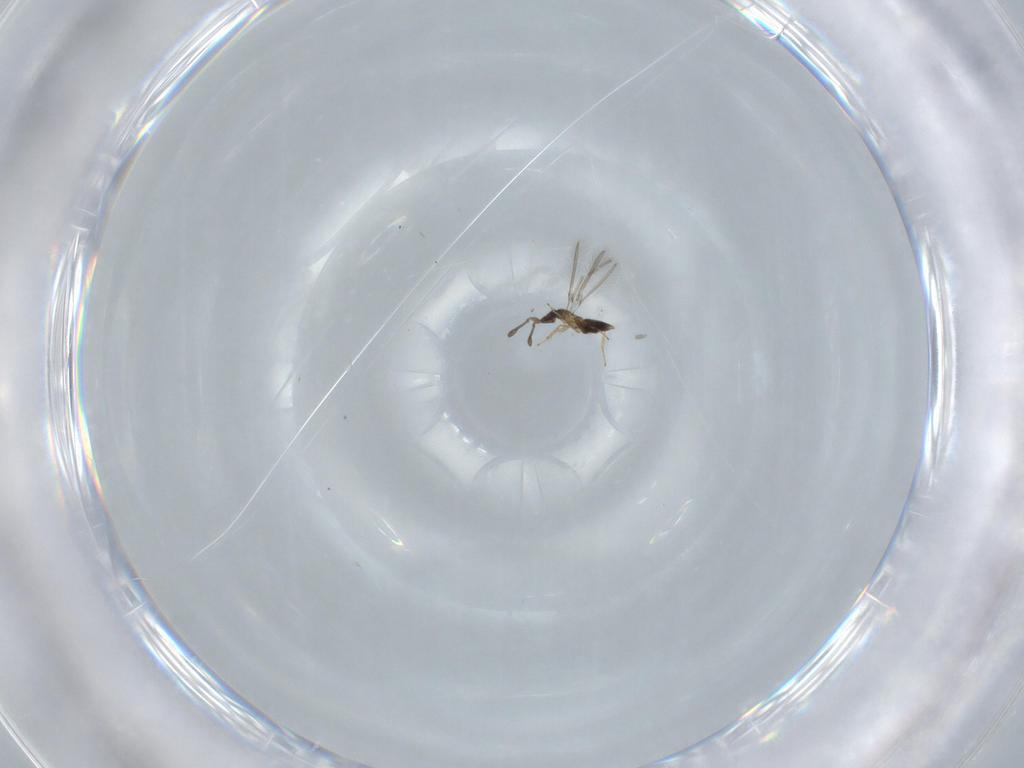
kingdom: Animalia
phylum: Arthropoda
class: Insecta
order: Hymenoptera
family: Mymaridae
